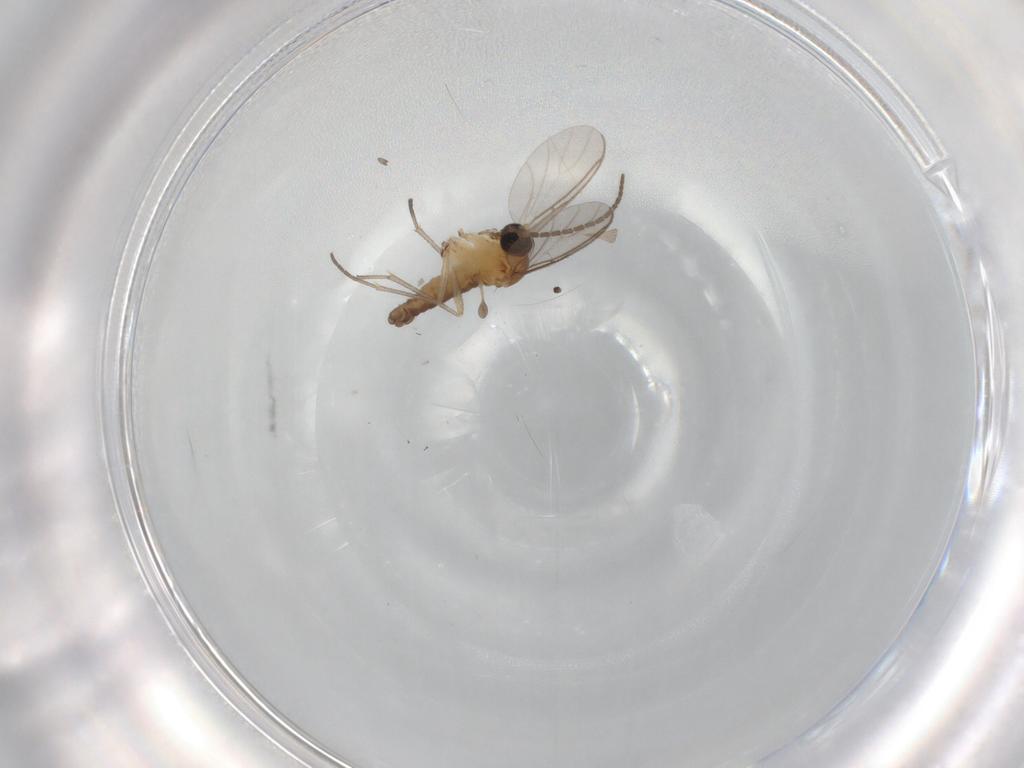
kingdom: Animalia
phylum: Arthropoda
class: Insecta
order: Diptera
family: Sciaridae
